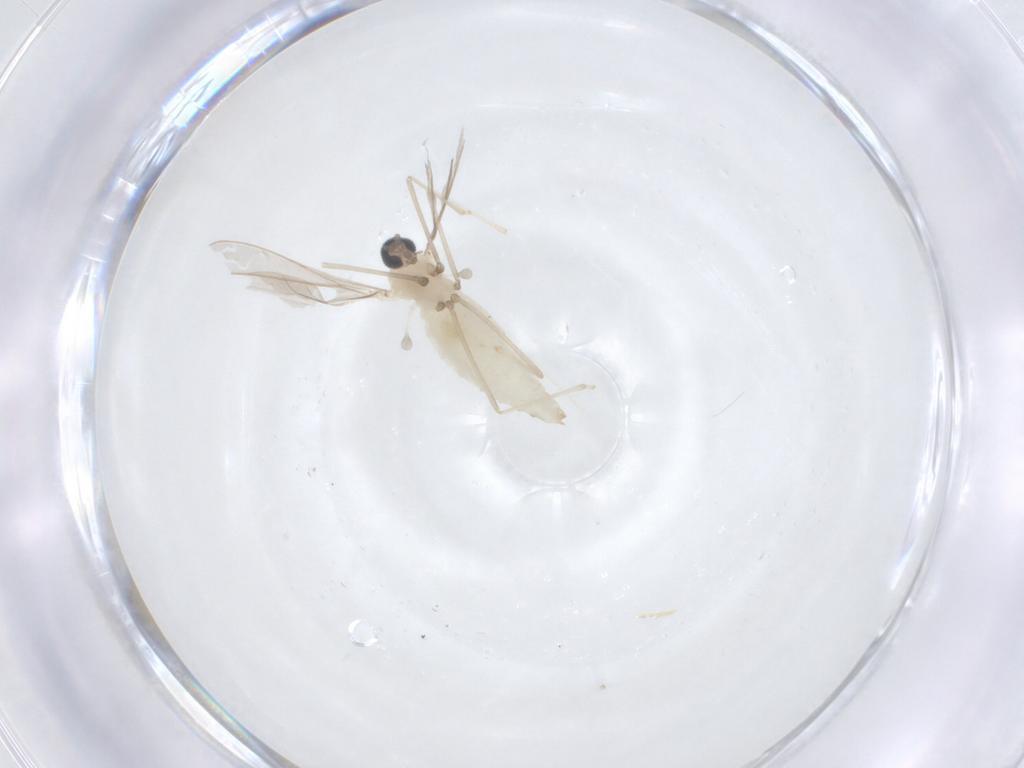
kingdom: Animalia
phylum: Arthropoda
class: Insecta
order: Diptera
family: Cecidomyiidae
